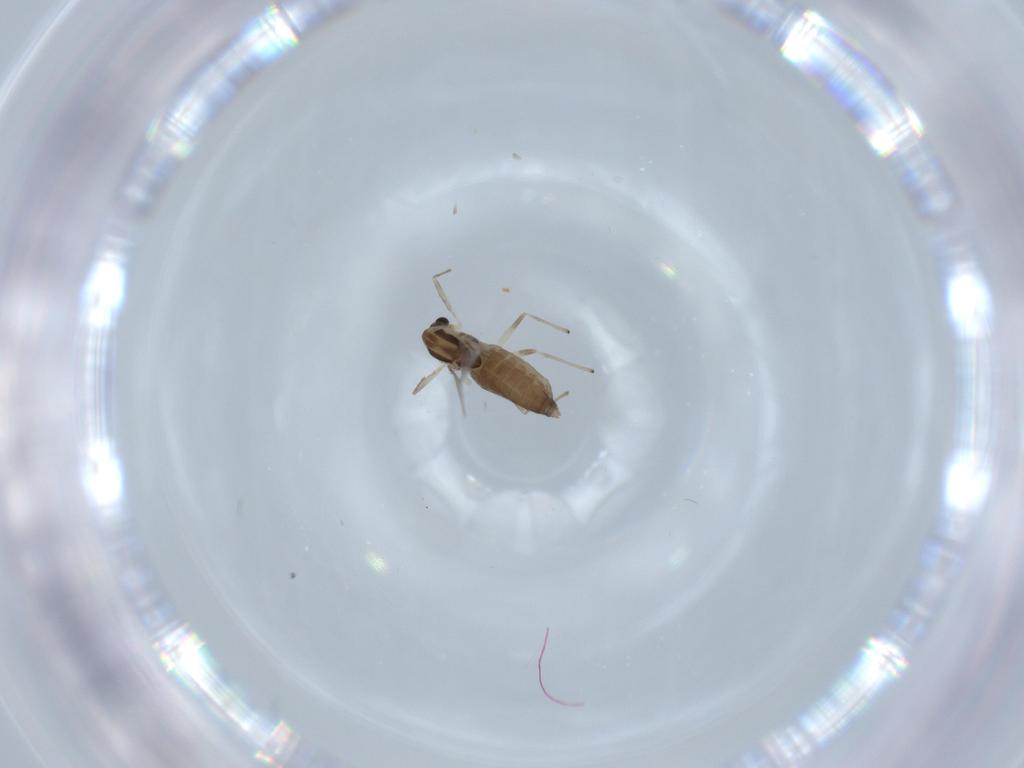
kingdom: Animalia
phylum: Arthropoda
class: Insecta
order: Diptera
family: Chironomidae
